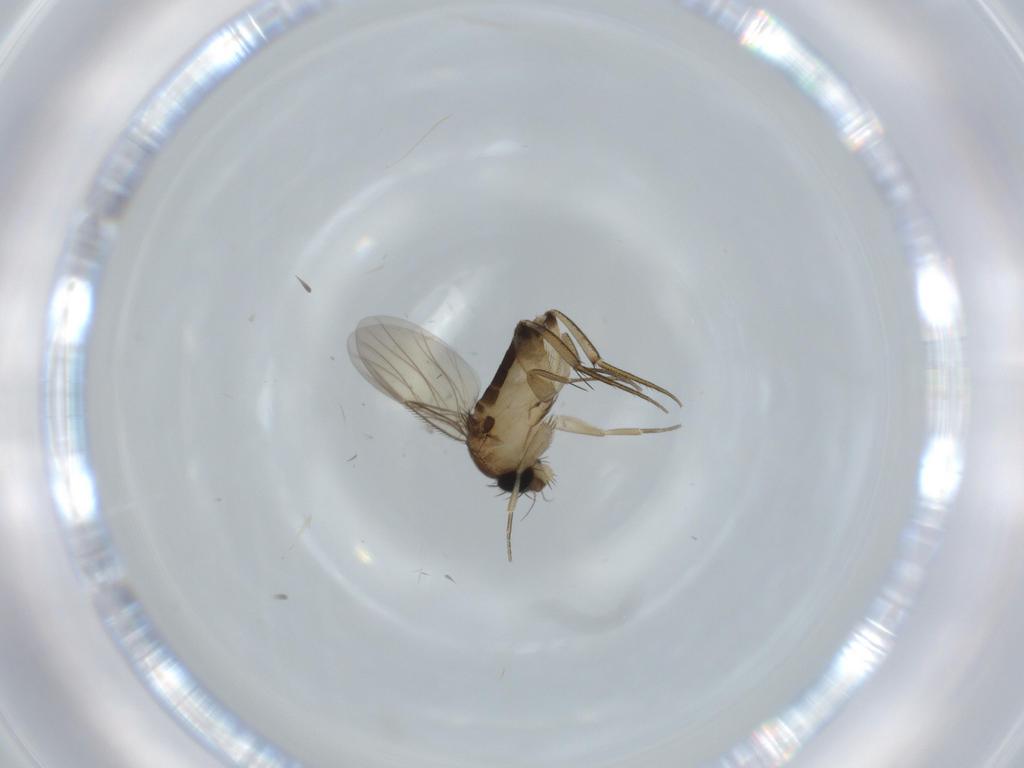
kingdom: Animalia
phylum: Arthropoda
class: Insecta
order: Diptera
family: Phoridae
